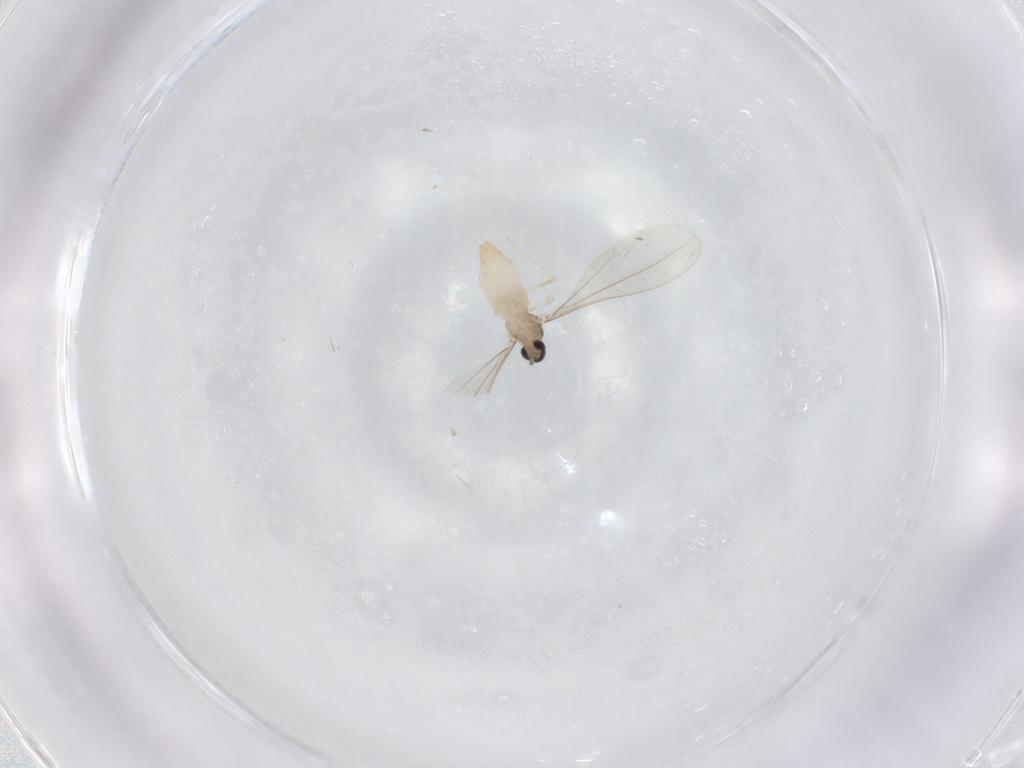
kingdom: Animalia
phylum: Arthropoda
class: Insecta
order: Diptera
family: Cecidomyiidae
